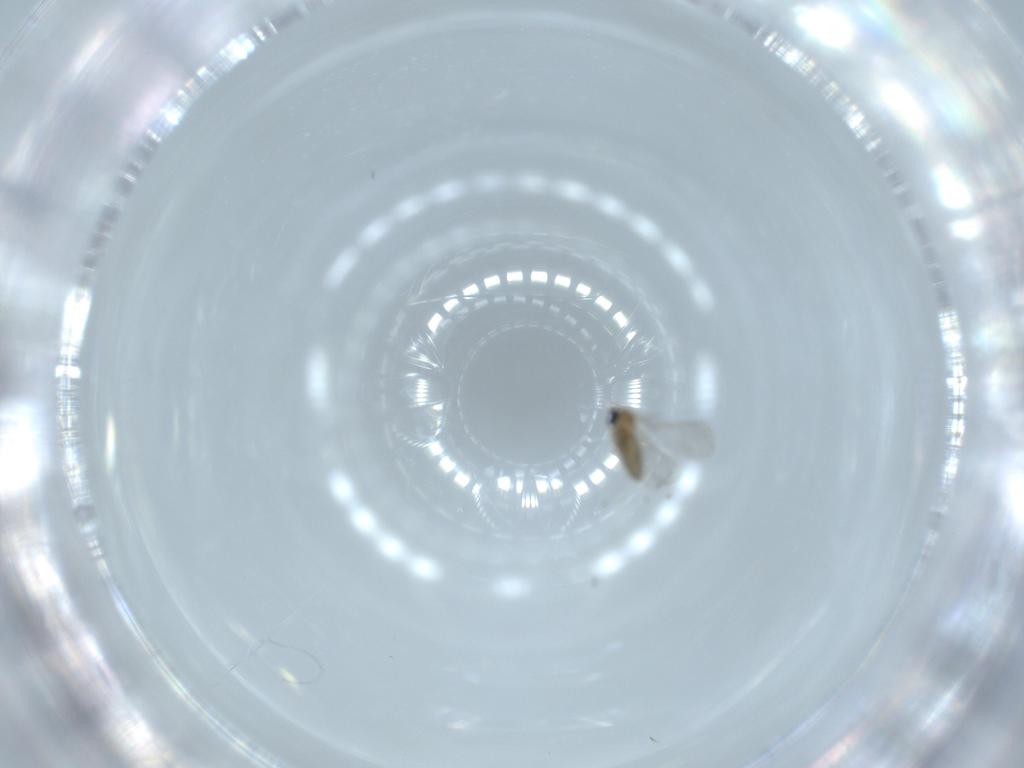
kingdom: Animalia
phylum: Arthropoda
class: Insecta
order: Diptera
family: Cecidomyiidae
